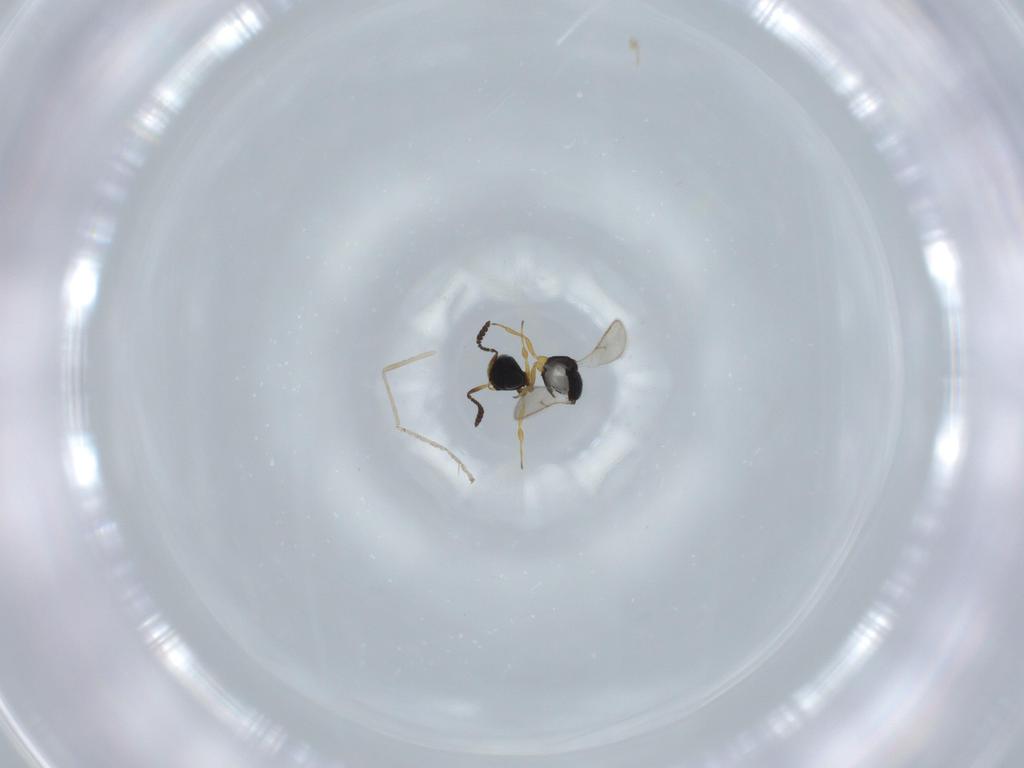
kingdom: Animalia
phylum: Arthropoda
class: Insecta
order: Hymenoptera
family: Scelionidae
